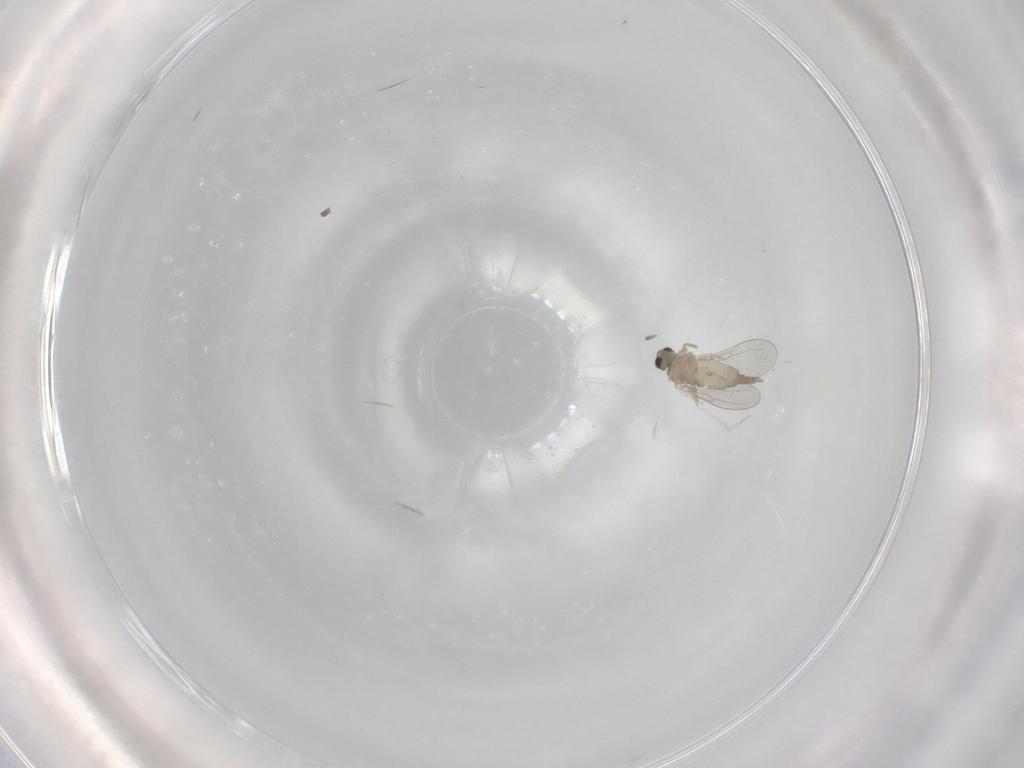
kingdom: Animalia
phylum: Arthropoda
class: Insecta
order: Diptera
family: Cecidomyiidae
